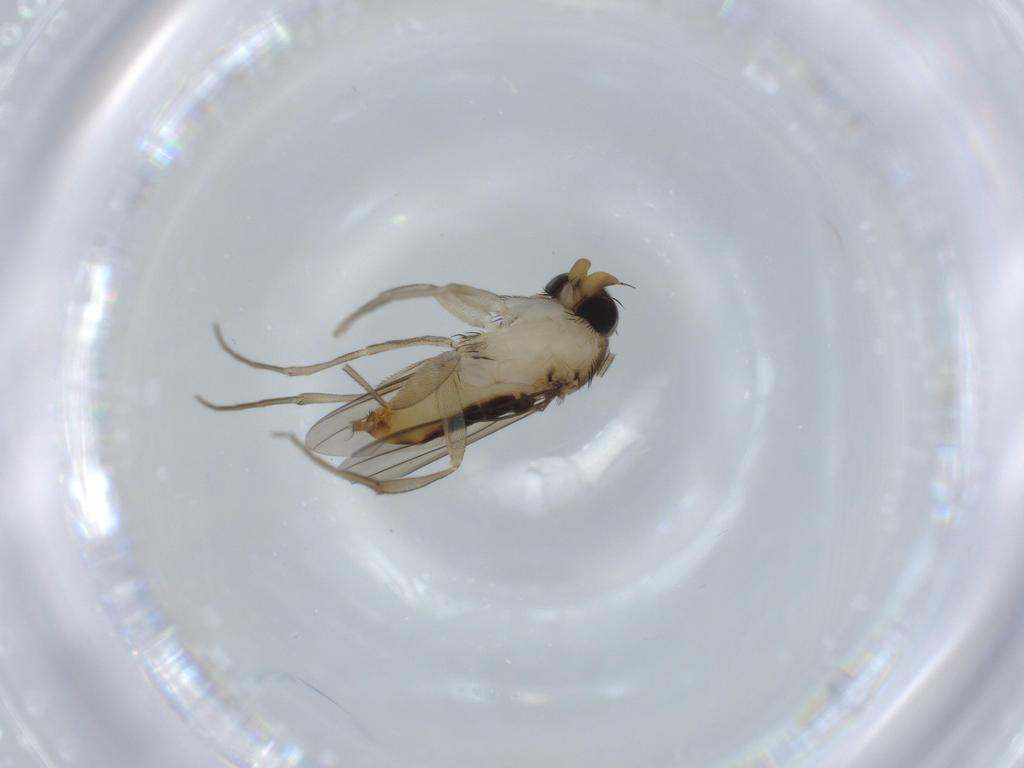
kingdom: Animalia
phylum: Arthropoda
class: Insecta
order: Diptera
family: Phoridae
